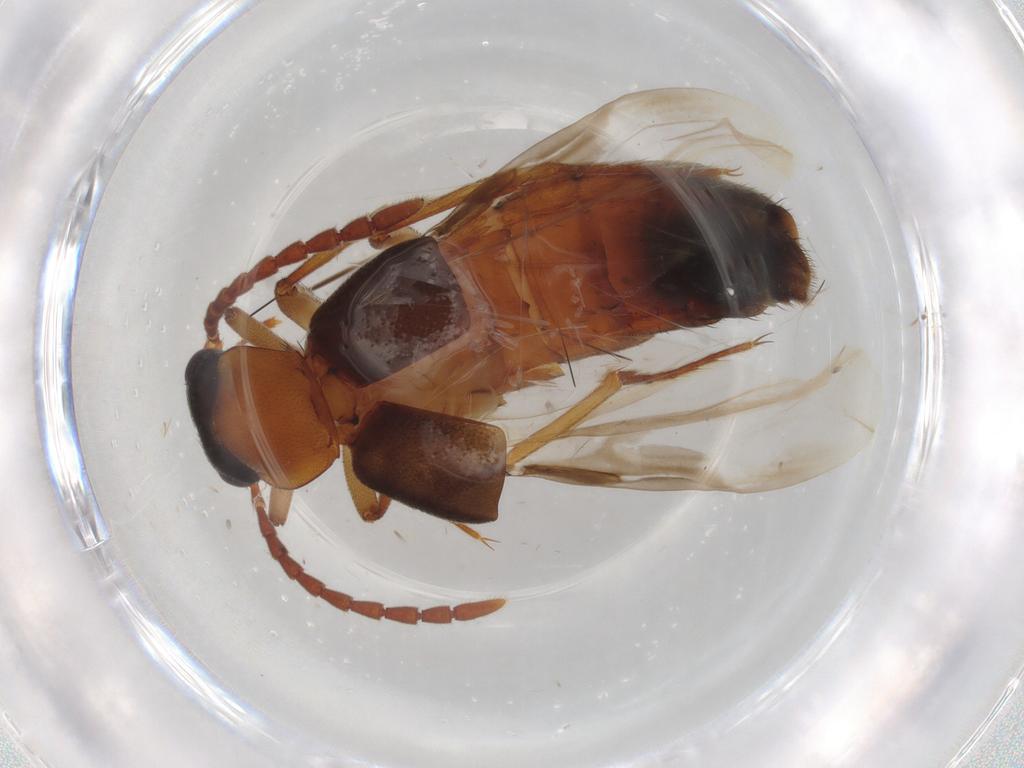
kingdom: Animalia
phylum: Arthropoda
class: Insecta
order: Coleoptera
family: Staphylinidae
